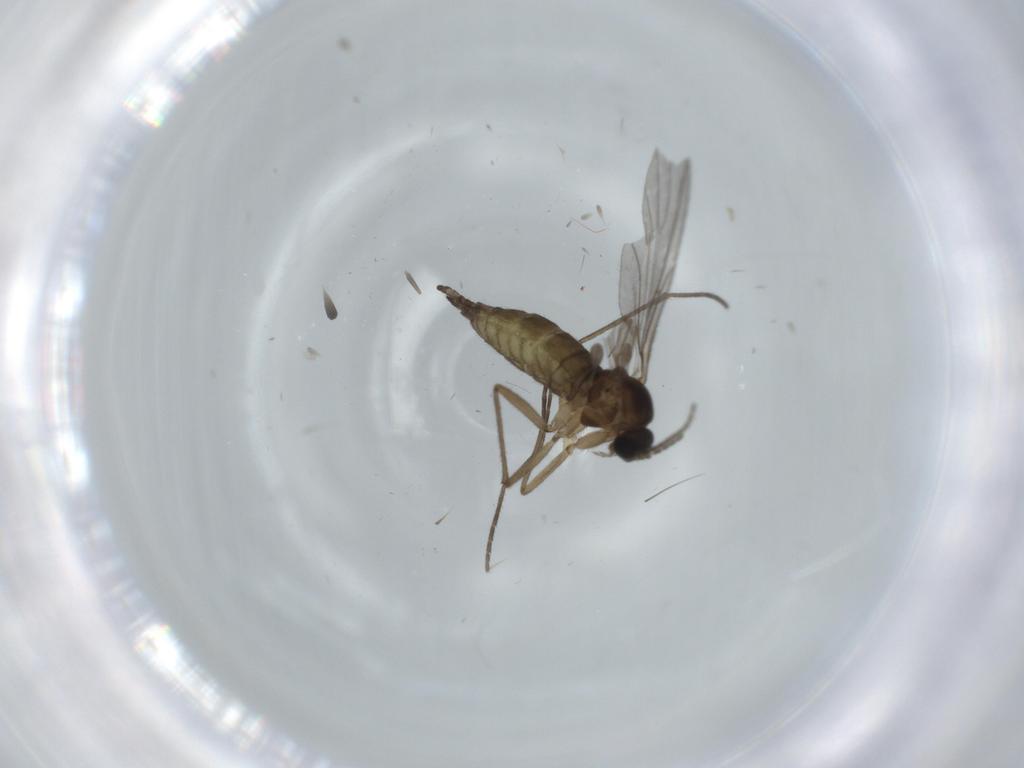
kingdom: Animalia
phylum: Arthropoda
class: Insecta
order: Diptera
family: Sciaridae
